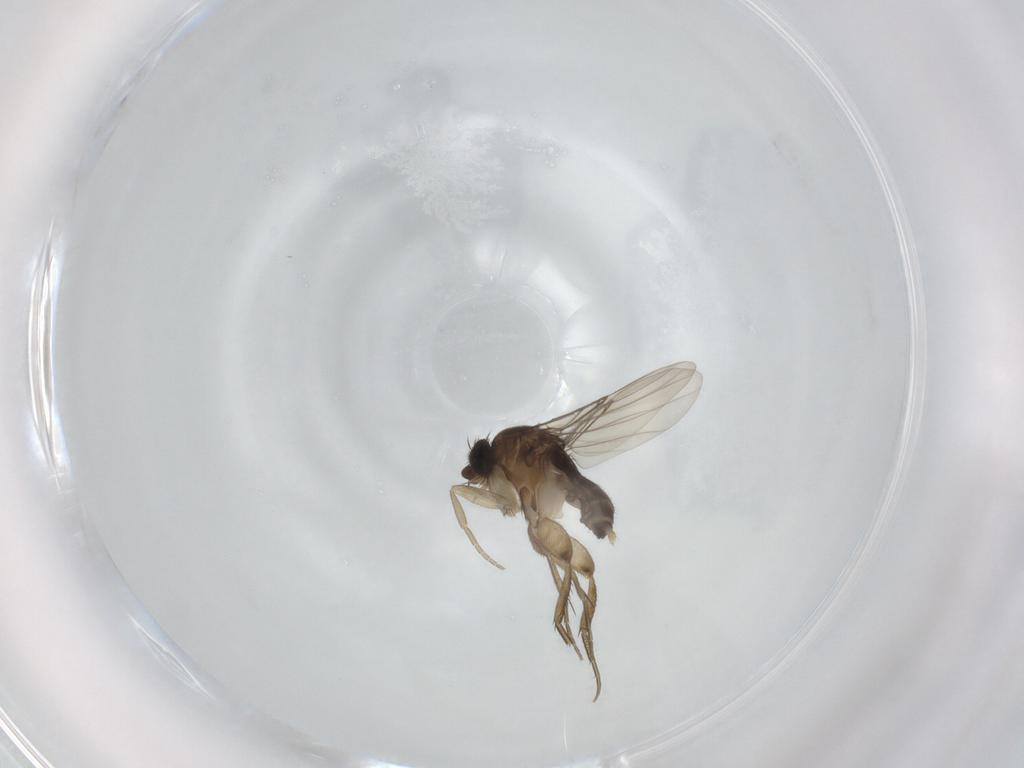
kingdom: Animalia
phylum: Arthropoda
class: Insecta
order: Diptera
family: Phoridae
